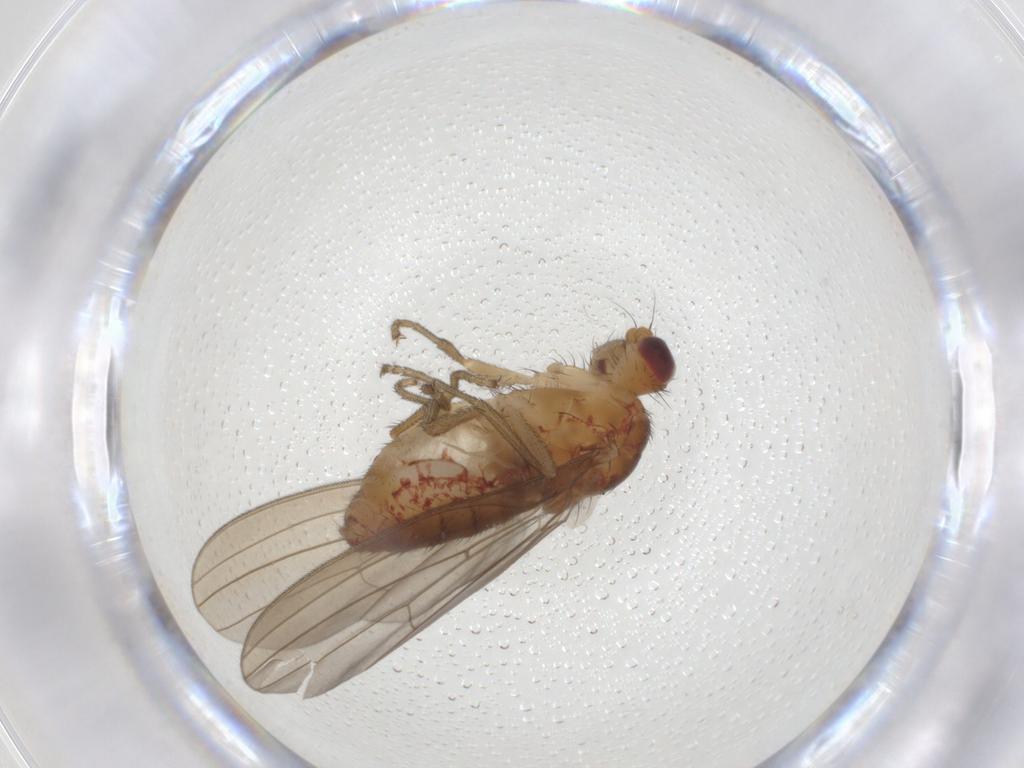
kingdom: Animalia
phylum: Arthropoda
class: Insecta
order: Diptera
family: Natalimyzidae
